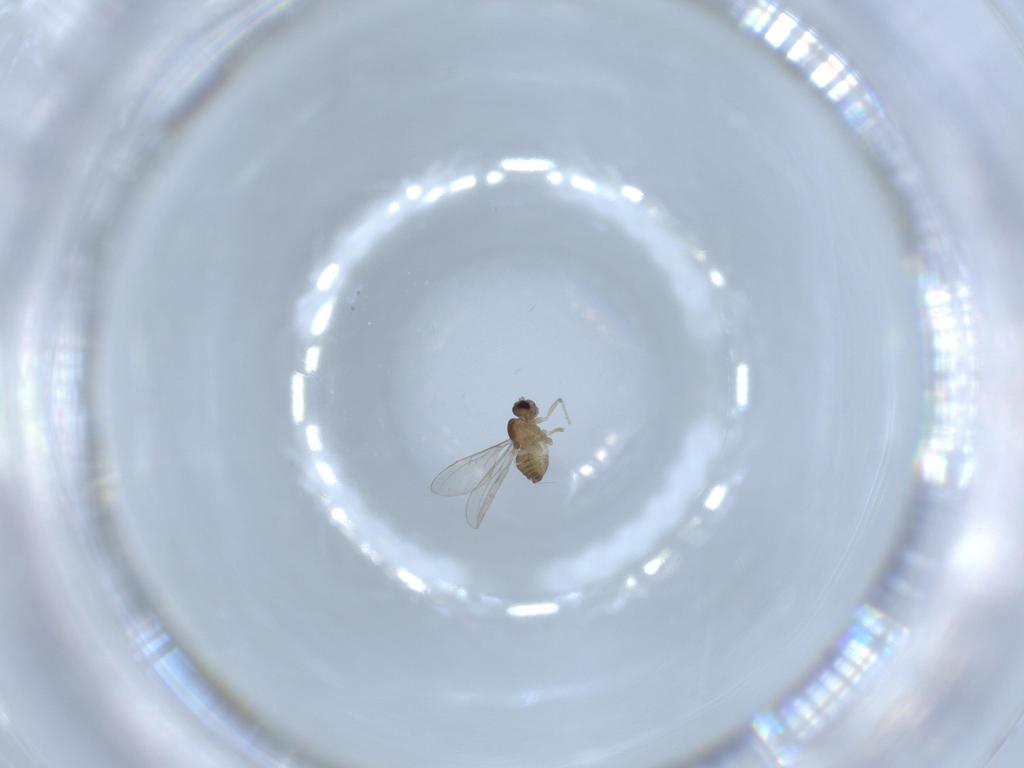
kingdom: Animalia
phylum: Arthropoda
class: Insecta
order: Diptera
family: Cecidomyiidae
